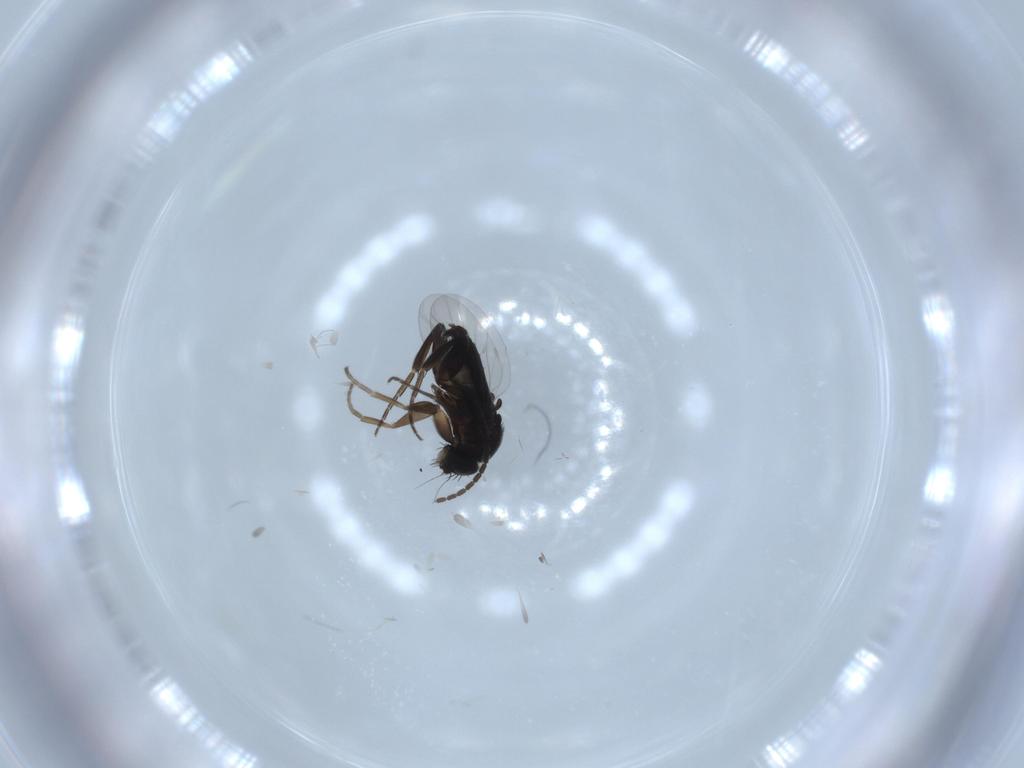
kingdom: Animalia
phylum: Arthropoda
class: Insecta
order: Diptera
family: Phoridae
